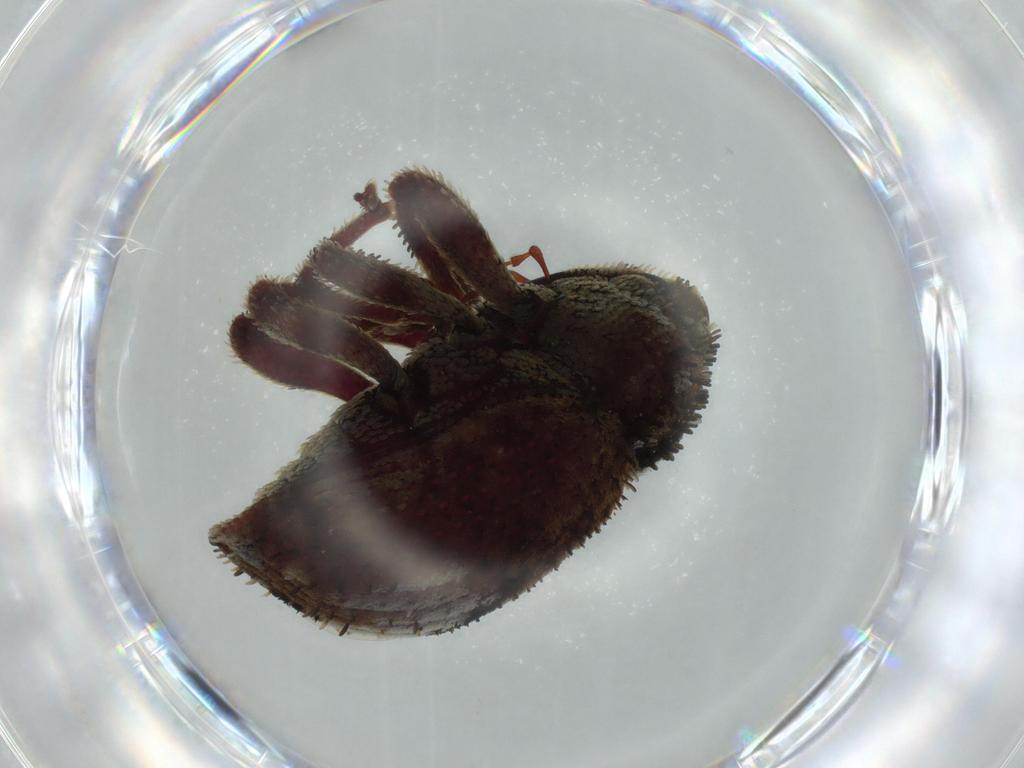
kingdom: Animalia
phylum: Arthropoda
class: Insecta
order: Coleoptera
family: Curculionidae
